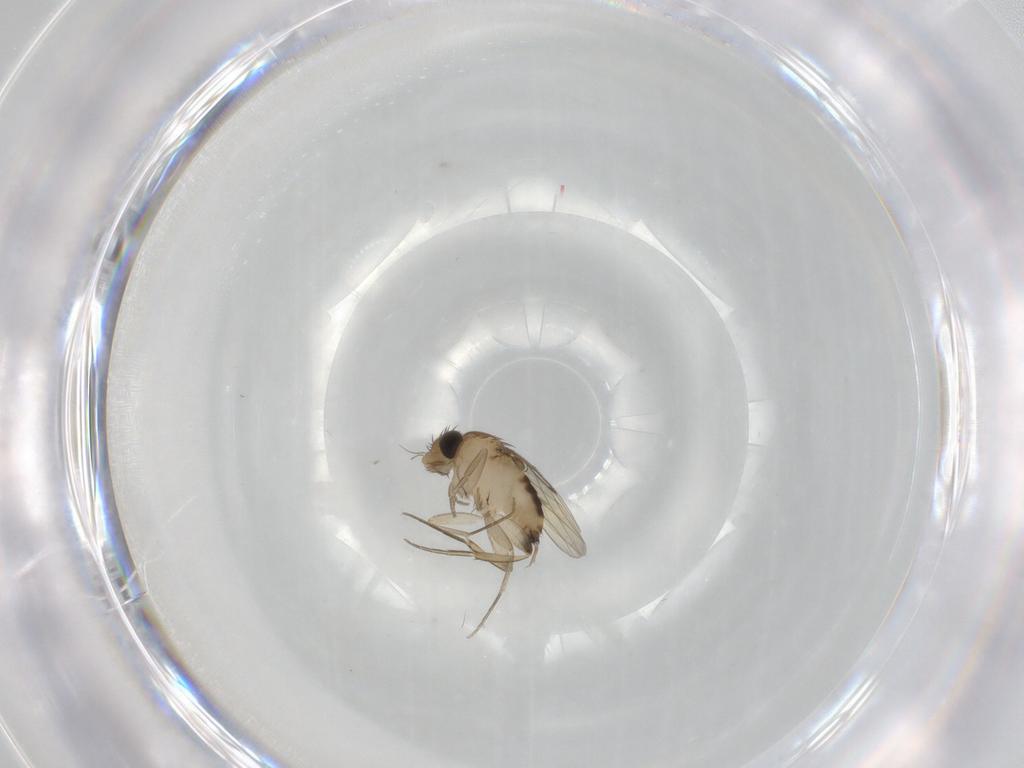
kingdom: Animalia
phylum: Arthropoda
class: Insecta
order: Diptera
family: Phoridae
